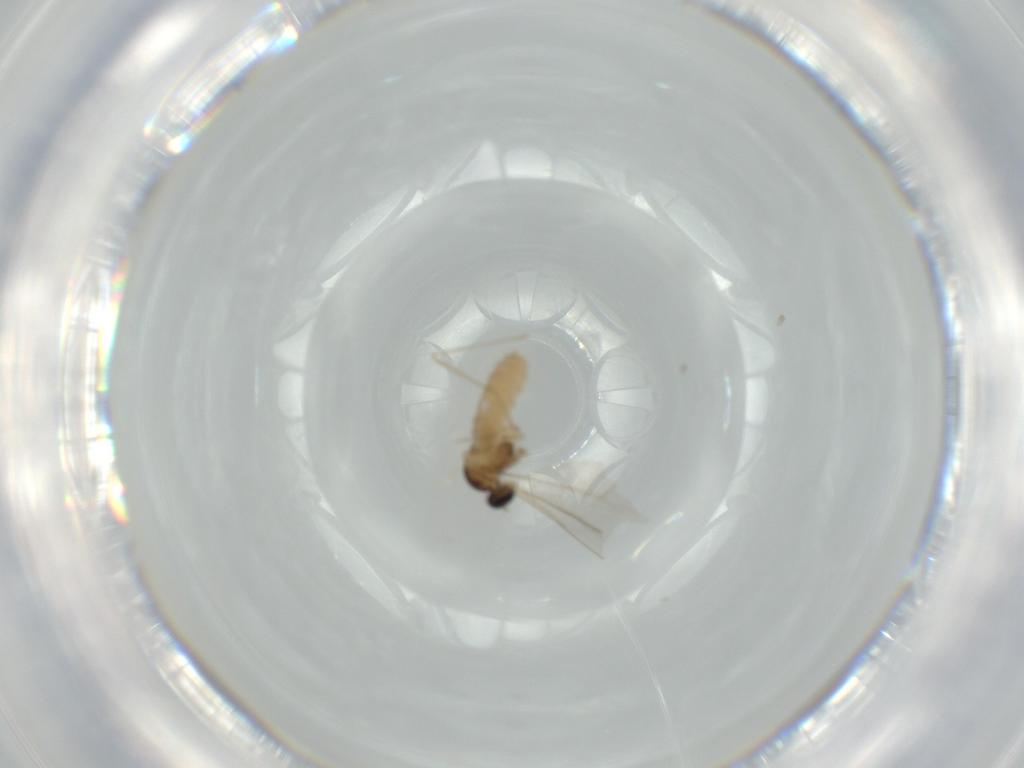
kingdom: Animalia
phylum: Arthropoda
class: Insecta
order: Diptera
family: Cecidomyiidae
